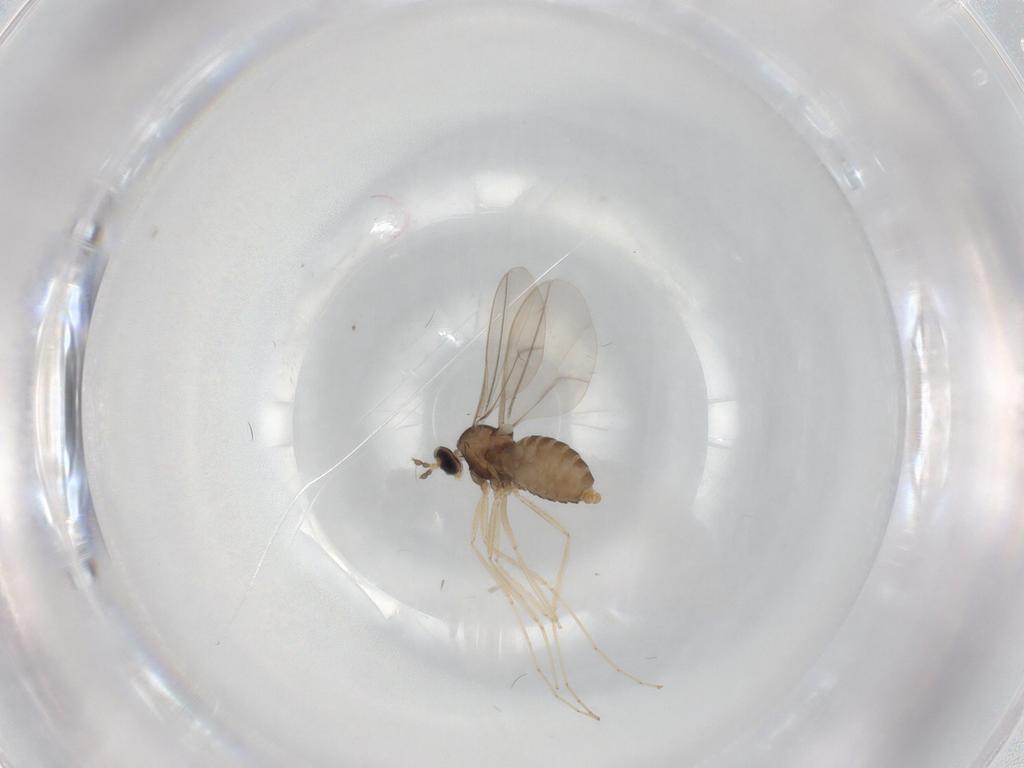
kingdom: Animalia
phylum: Arthropoda
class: Insecta
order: Diptera
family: Cecidomyiidae
